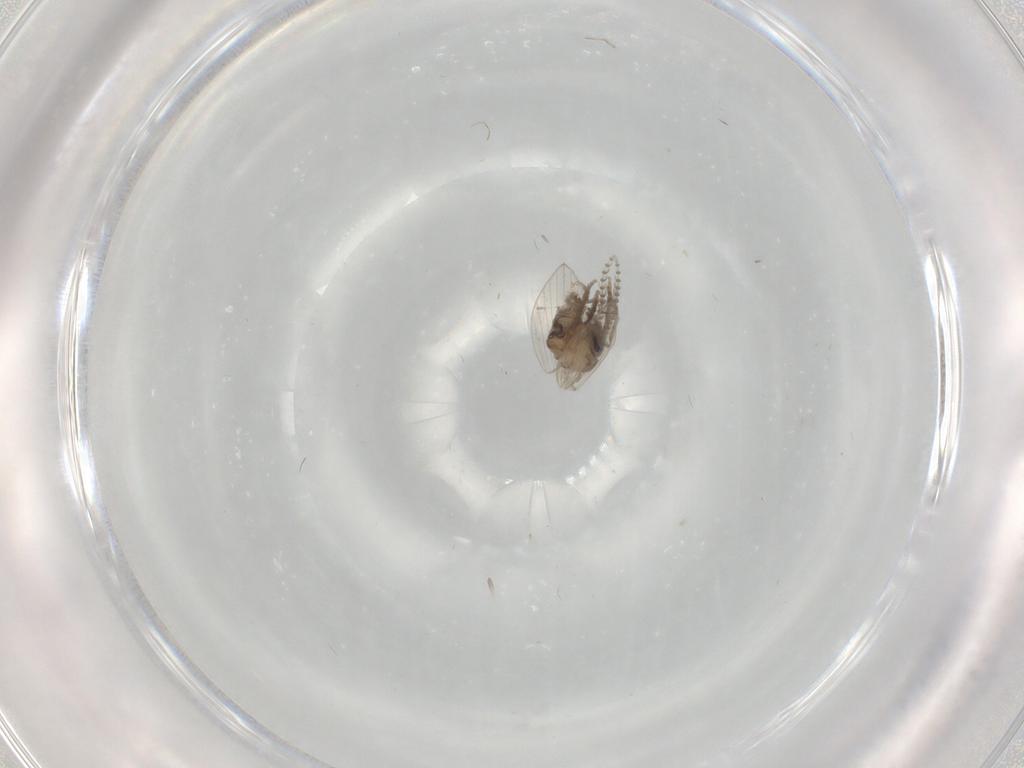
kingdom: Animalia
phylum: Arthropoda
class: Insecta
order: Diptera
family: Psychodidae
